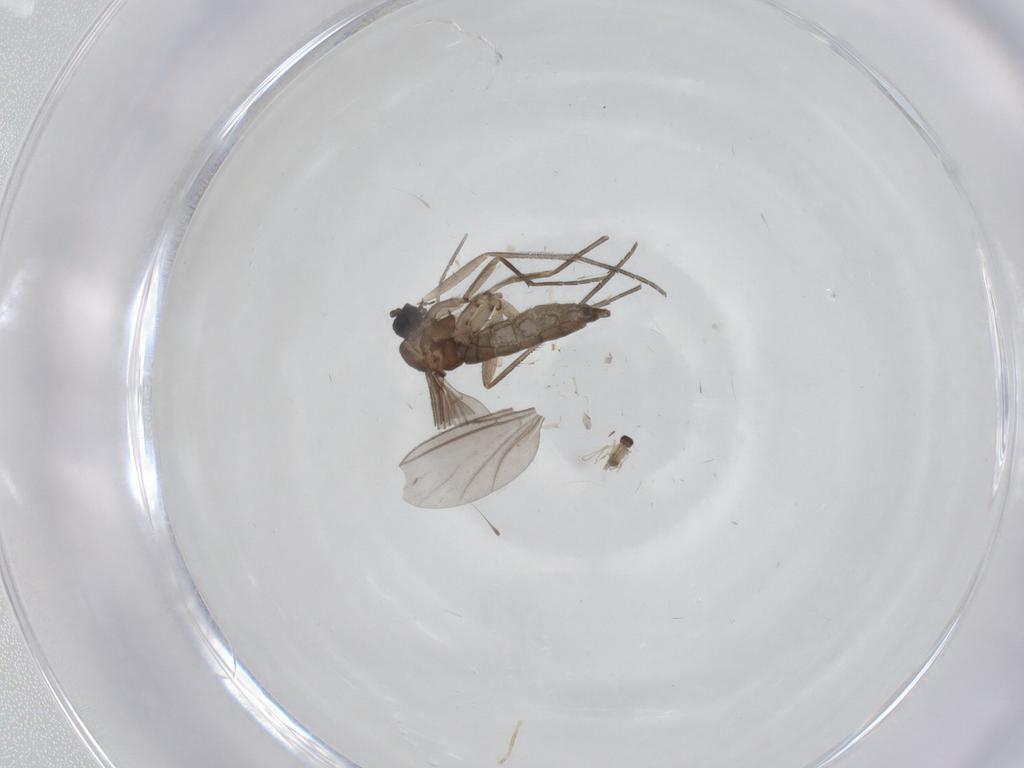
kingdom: Animalia
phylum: Arthropoda
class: Insecta
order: Diptera
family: Sciaridae
